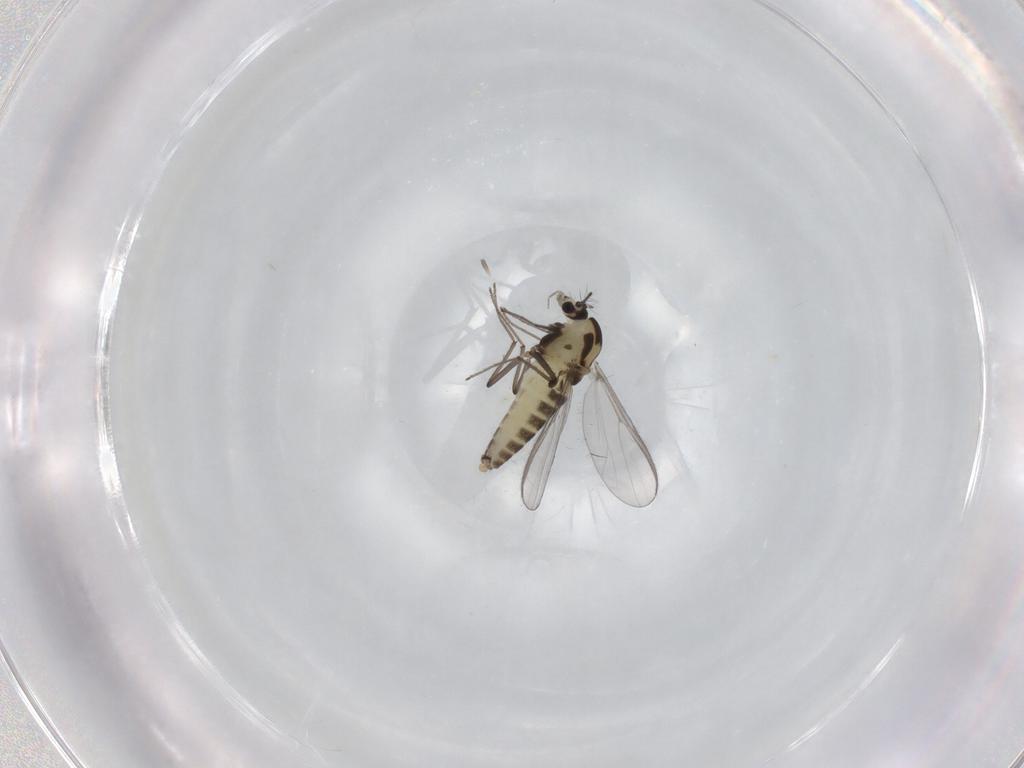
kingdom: Animalia
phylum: Arthropoda
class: Insecta
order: Diptera
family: Chironomidae
